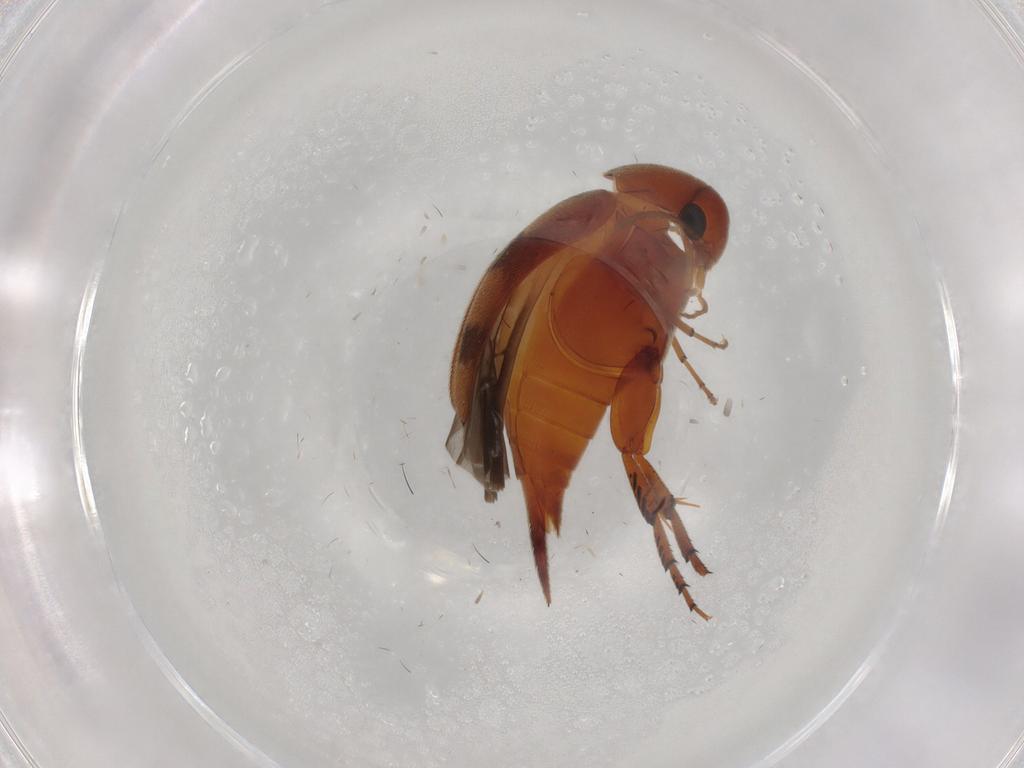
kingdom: Animalia
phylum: Arthropoda
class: Insecta
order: Coleoptera
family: Mordellidae
